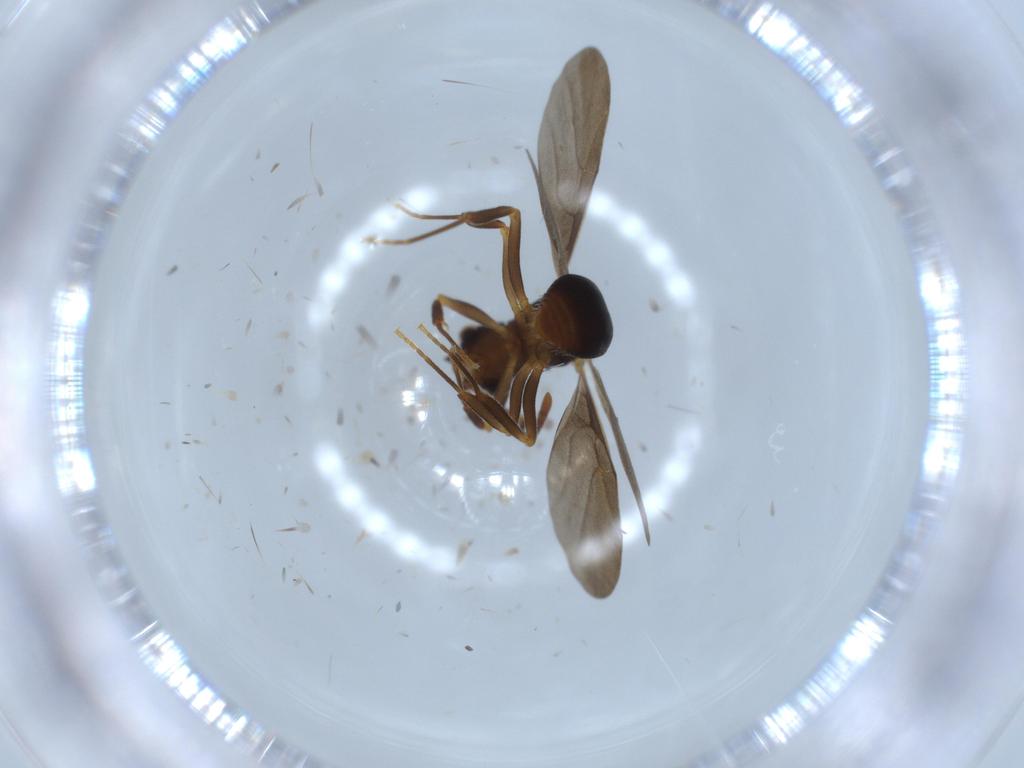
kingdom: Animalia
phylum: Arthropoda
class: Insecta
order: Hymenoptera
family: Formicidae
